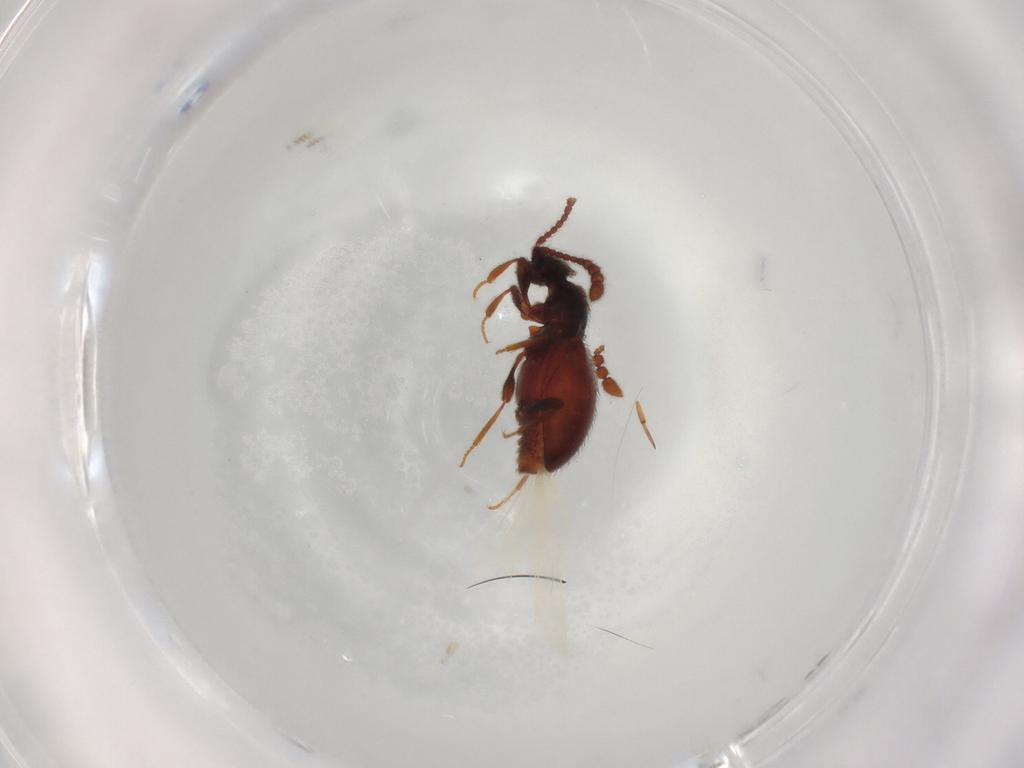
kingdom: Animalia
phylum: Arthropoda
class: Insecta
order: Coleoptera
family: Staphylinidae
